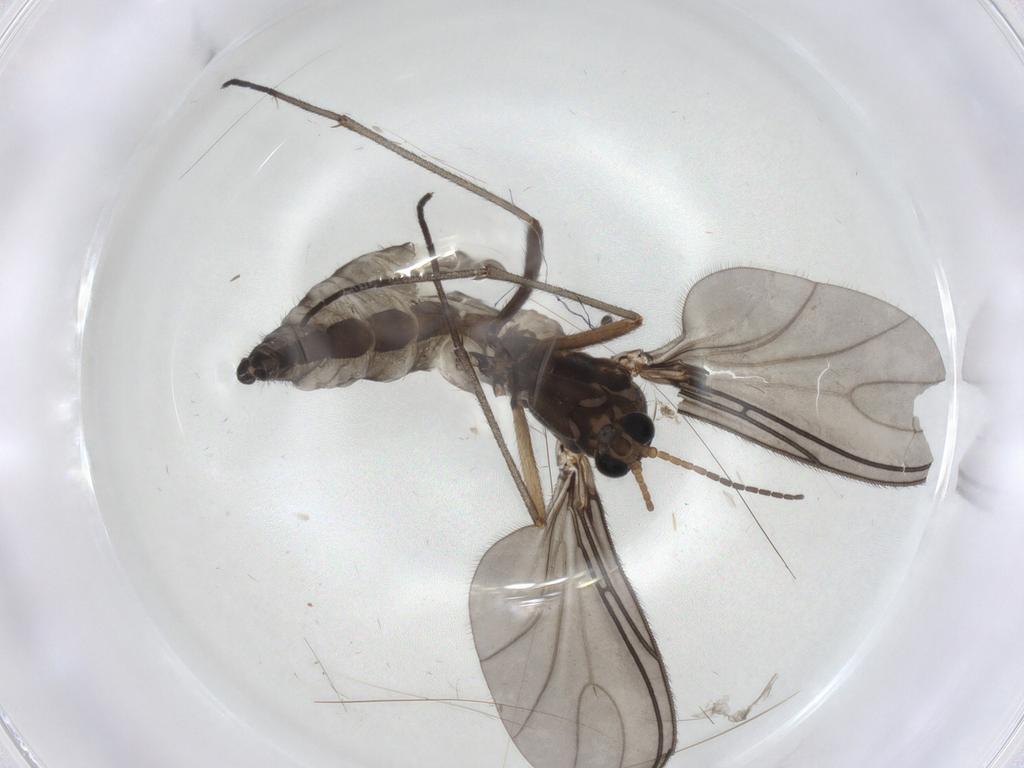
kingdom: Animalia
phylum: Arthropoda
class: Insecta
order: Diptera
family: Sciaridae
